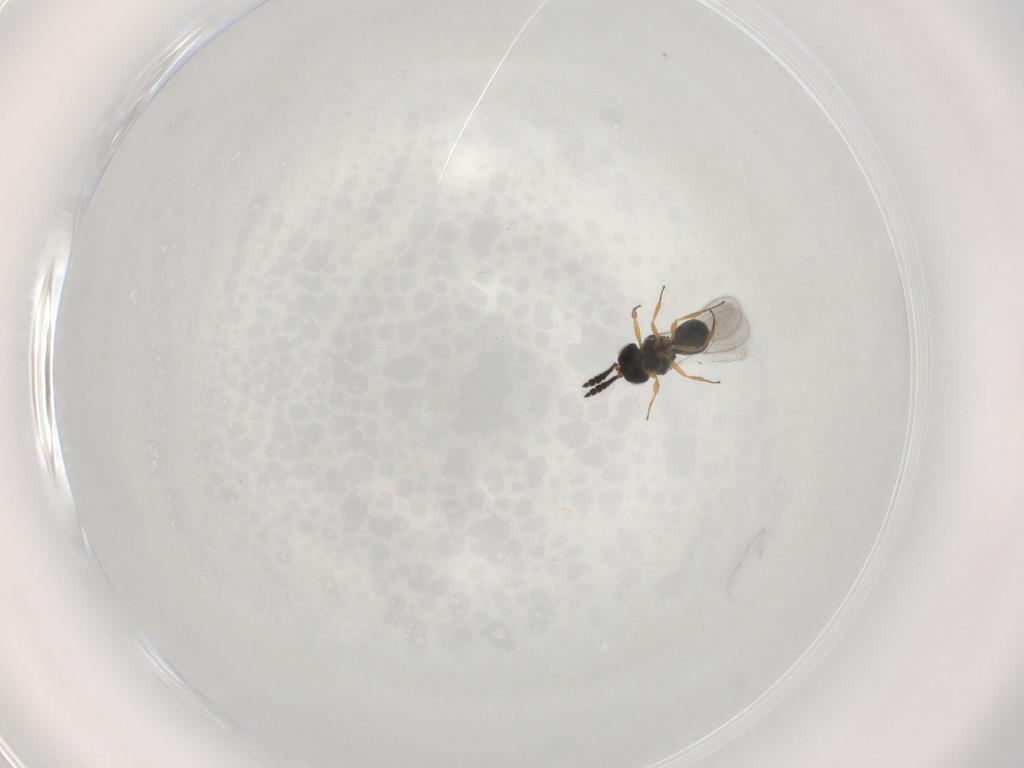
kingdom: Animalia
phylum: Arthropoda
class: Insecta
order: Hymenoptera
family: Scelionidae
